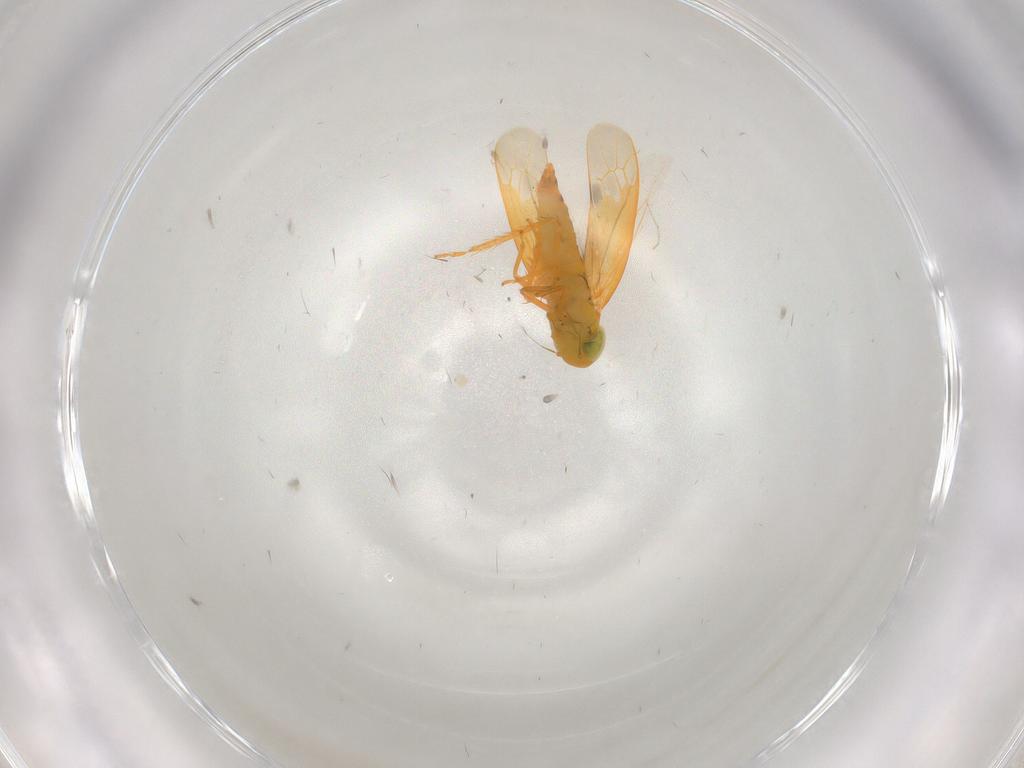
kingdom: Animalia
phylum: Arthropoda
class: Insecta
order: Hemiptera
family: Cicadellidae
